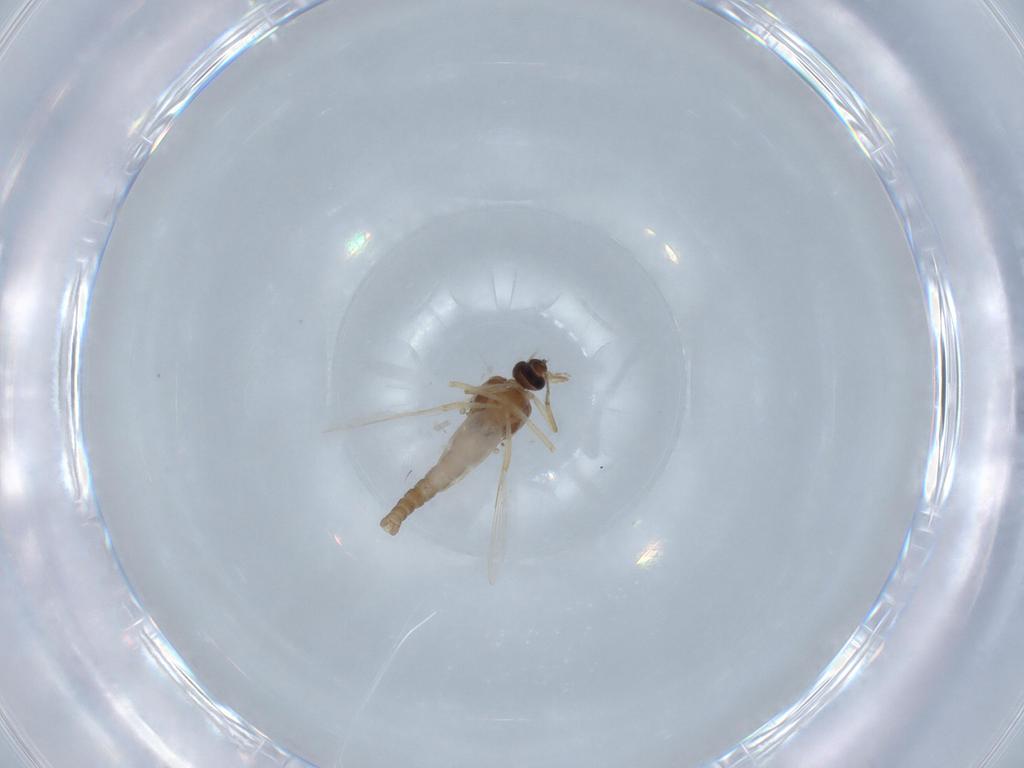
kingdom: Animalia
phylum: Arthropoda
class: Insecta
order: Diptera
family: Ceratopogonidae
